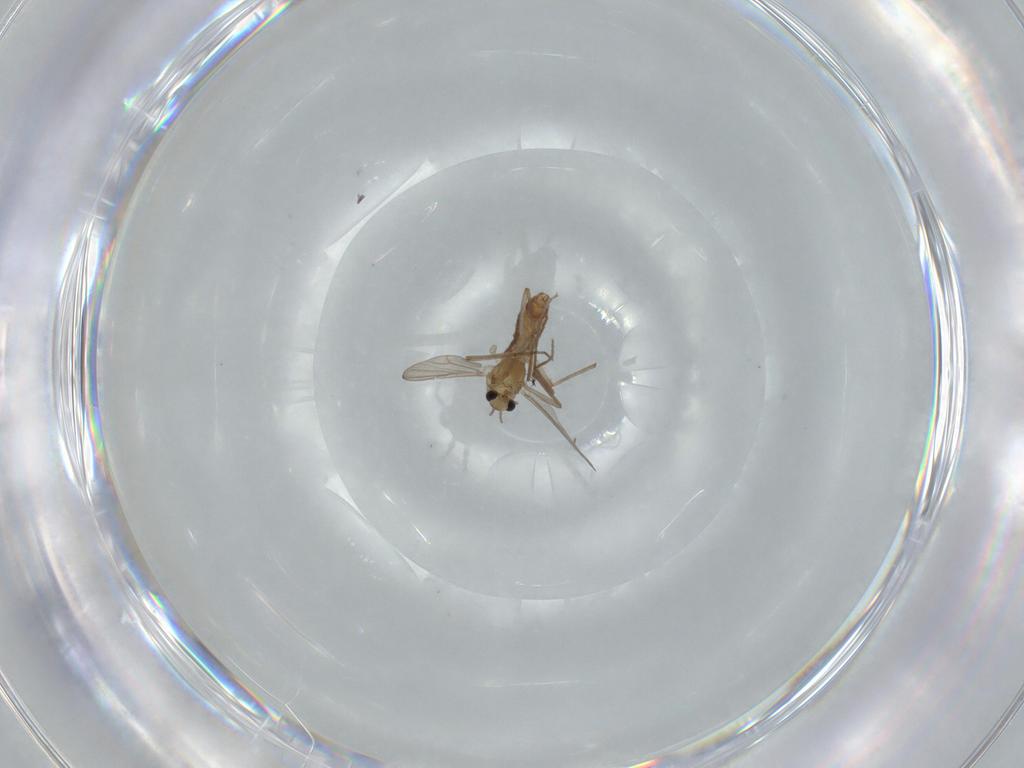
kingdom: Animalia
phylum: Arthropoda
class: Insecta
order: Diptera
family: Chironomidae
